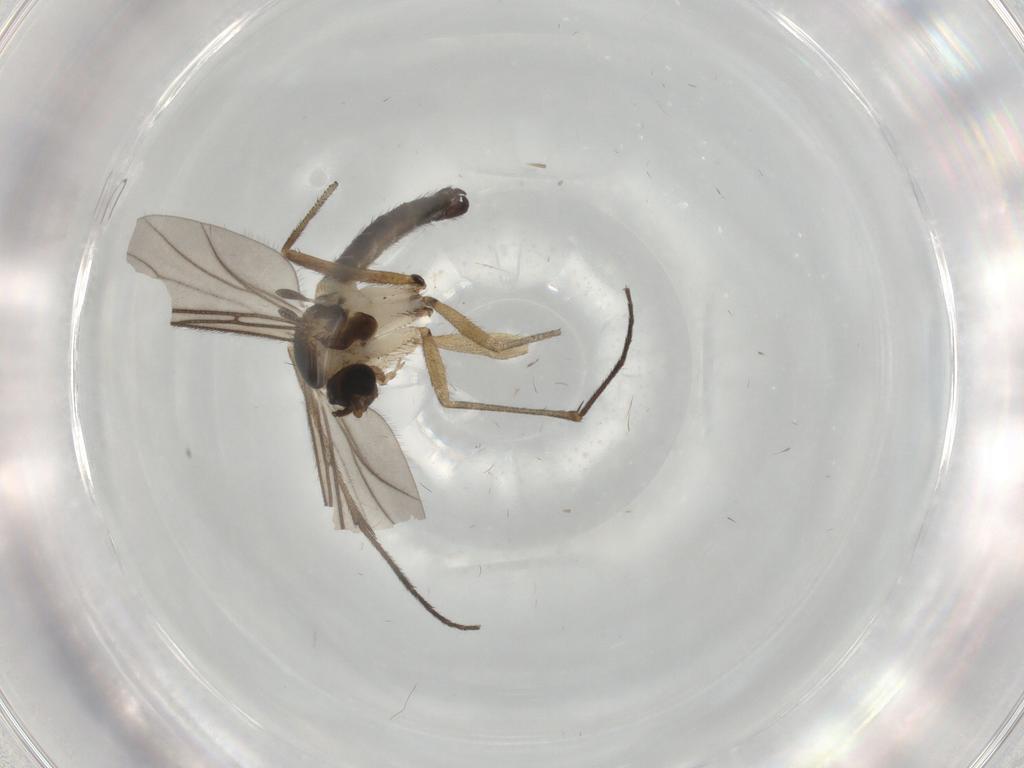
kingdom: Animalia
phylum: Arthropoda
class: Insecta
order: Diptera
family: Sciaridae
